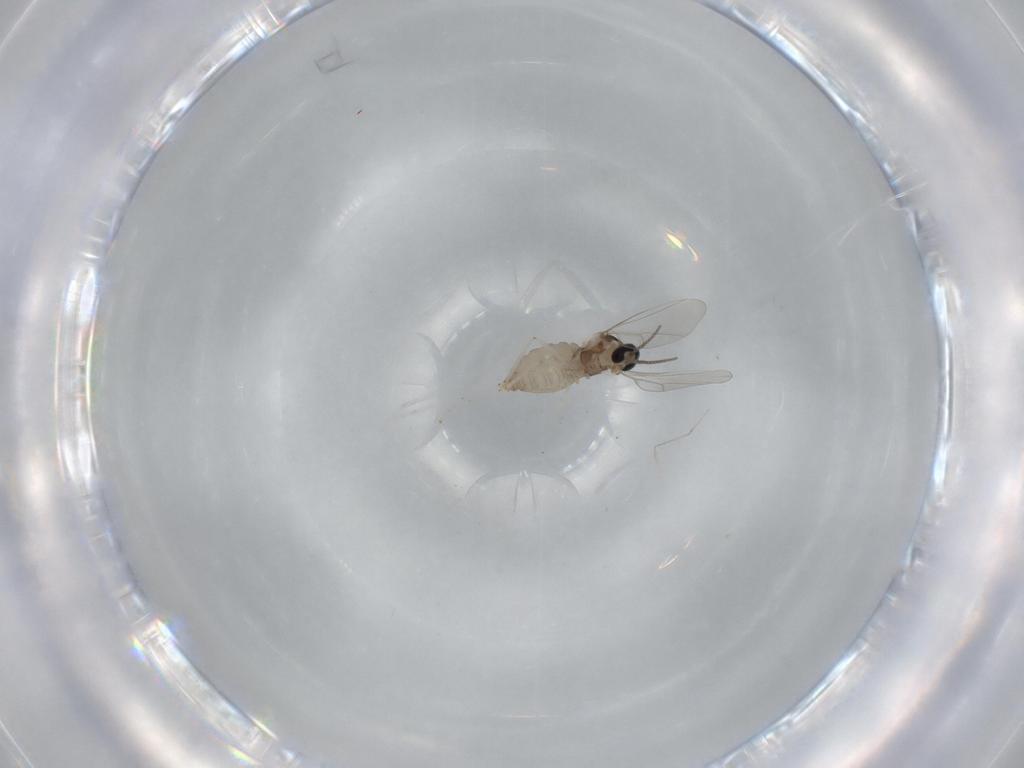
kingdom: Animalia
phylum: Arthropoda
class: Insecta
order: Diptera
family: Cecidomyiidae
